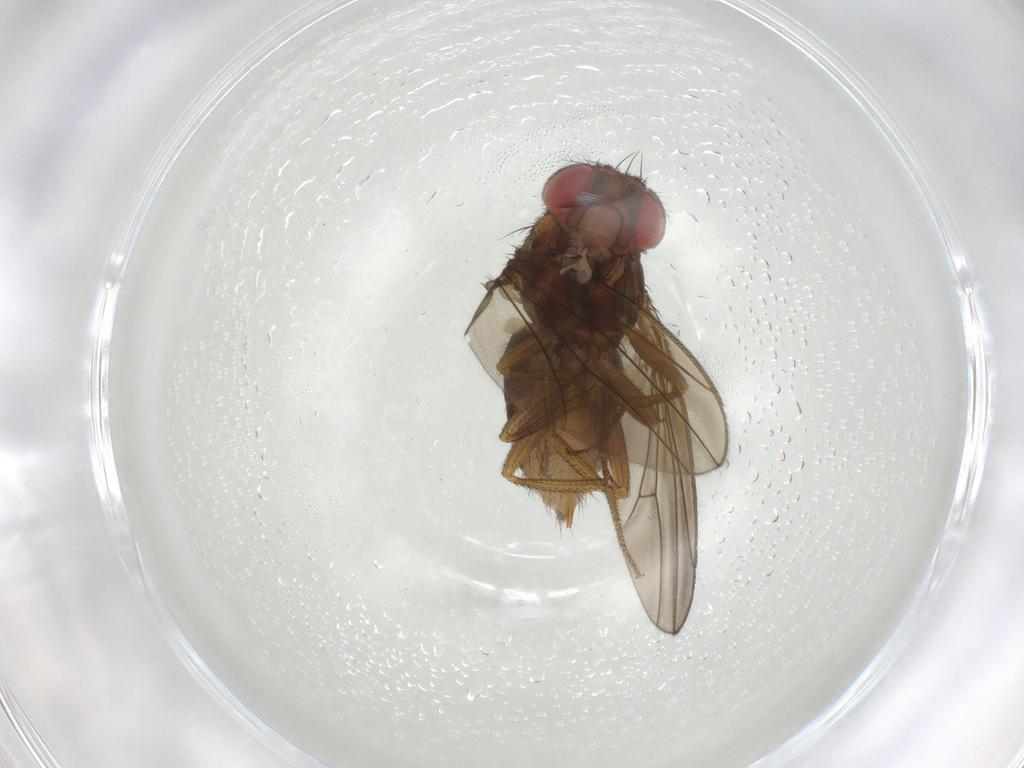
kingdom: Animalia
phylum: Arthropoda
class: Insecta
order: Diptera
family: Drosophilidae
